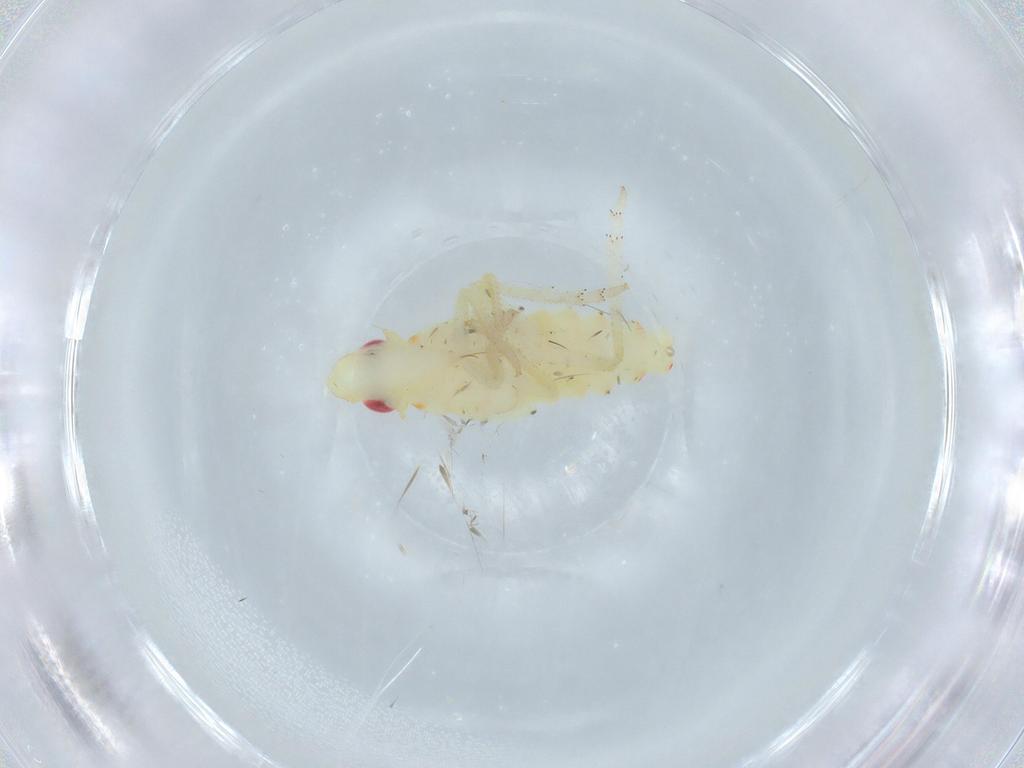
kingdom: Animalia
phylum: Arthropoda
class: Insecta
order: Hemiptera
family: Tropiduchidae
